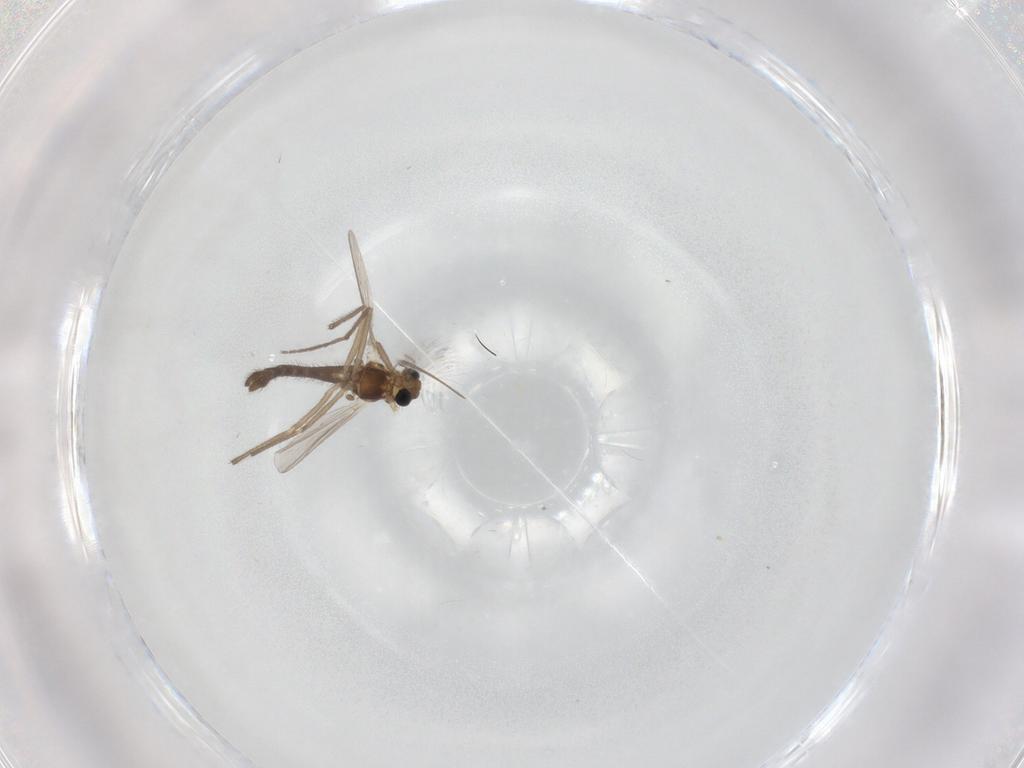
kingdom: Animalia
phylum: Arthropoda
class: Insecta
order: Diptera
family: Chironomidae
